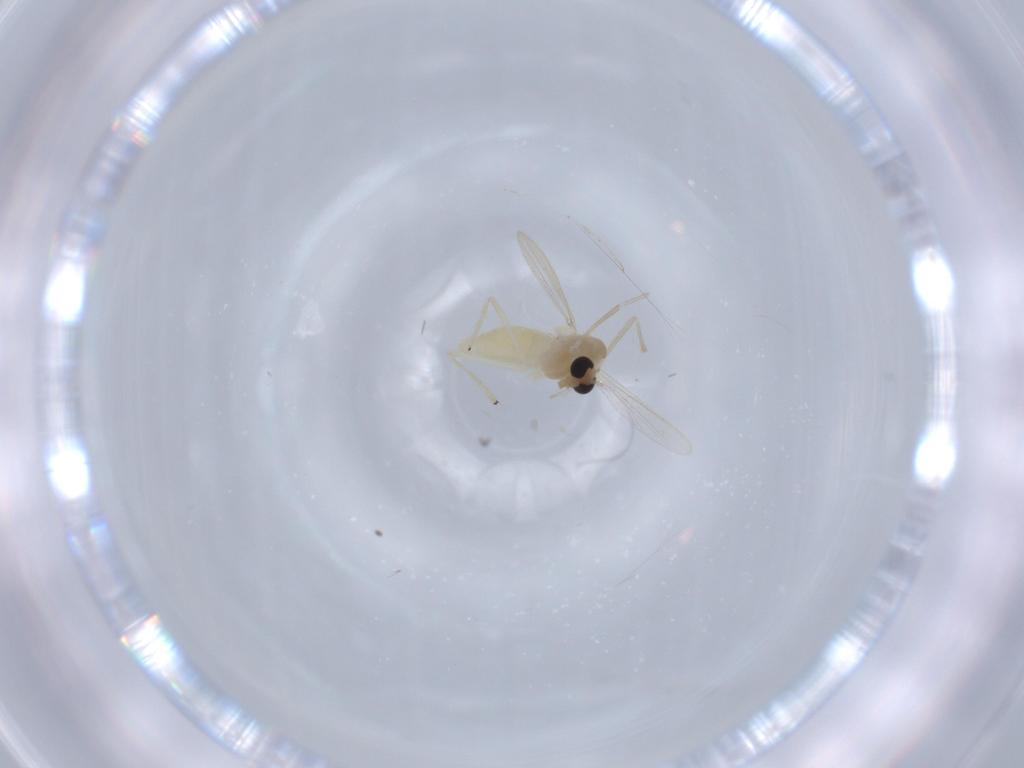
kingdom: Animalia
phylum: Arthropoda
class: Insecta
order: Diptera
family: Chironomidae
